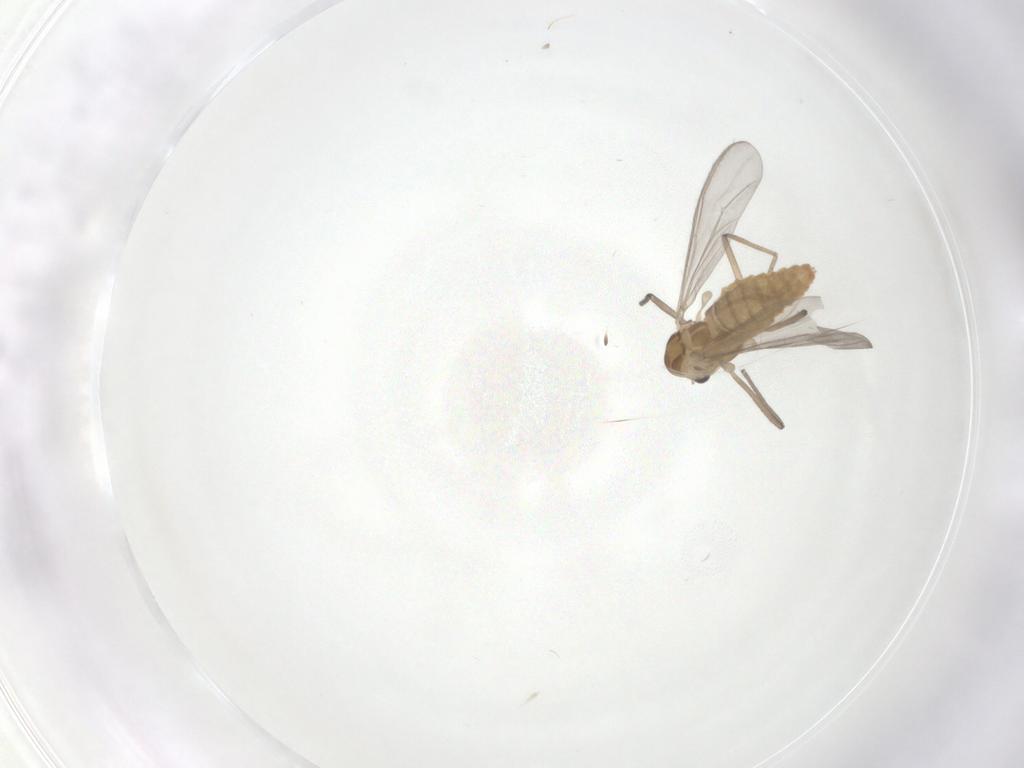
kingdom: Animalia
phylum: Arthropoda
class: Insecta
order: Diptera
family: Chironomidae
